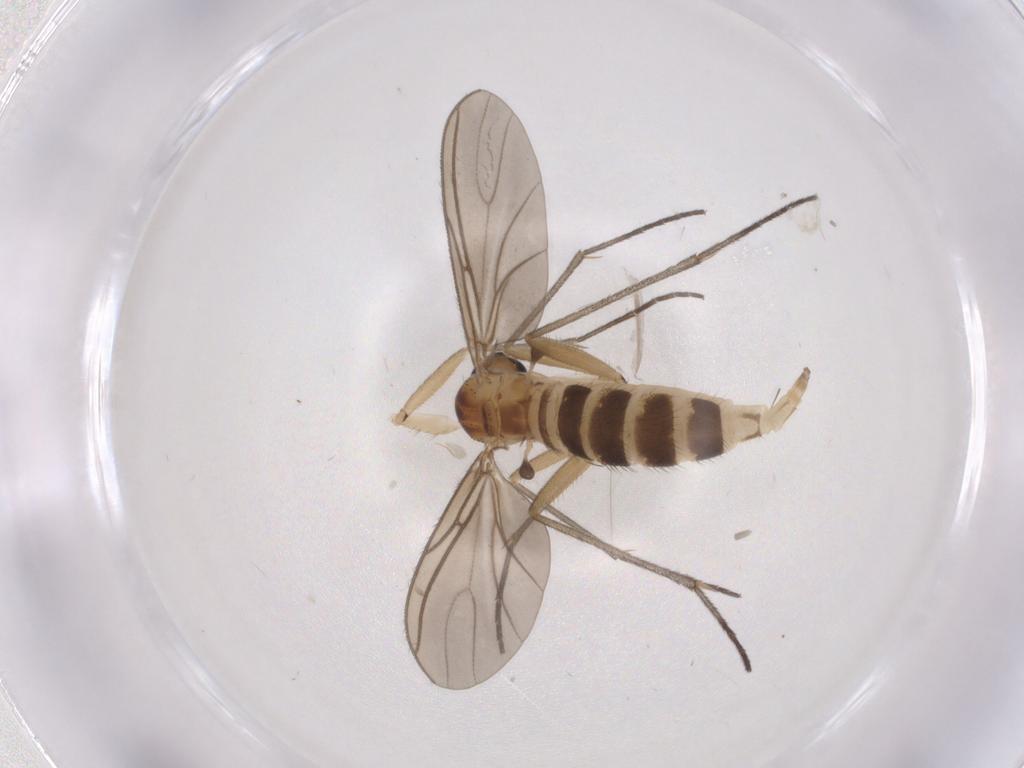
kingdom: Animalia
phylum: Arthropoda
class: Insecta
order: Diptera
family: Sciaridae
